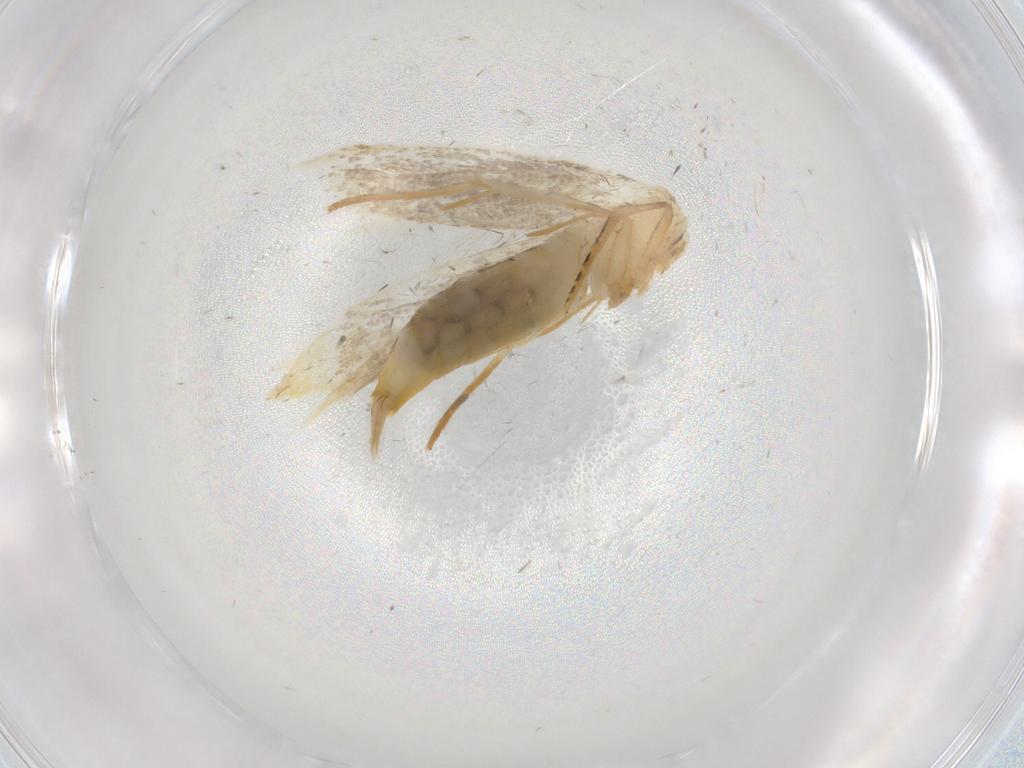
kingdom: Animalia
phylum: Arthropoda
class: Insecta
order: Lepidoptera
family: Tineidae
